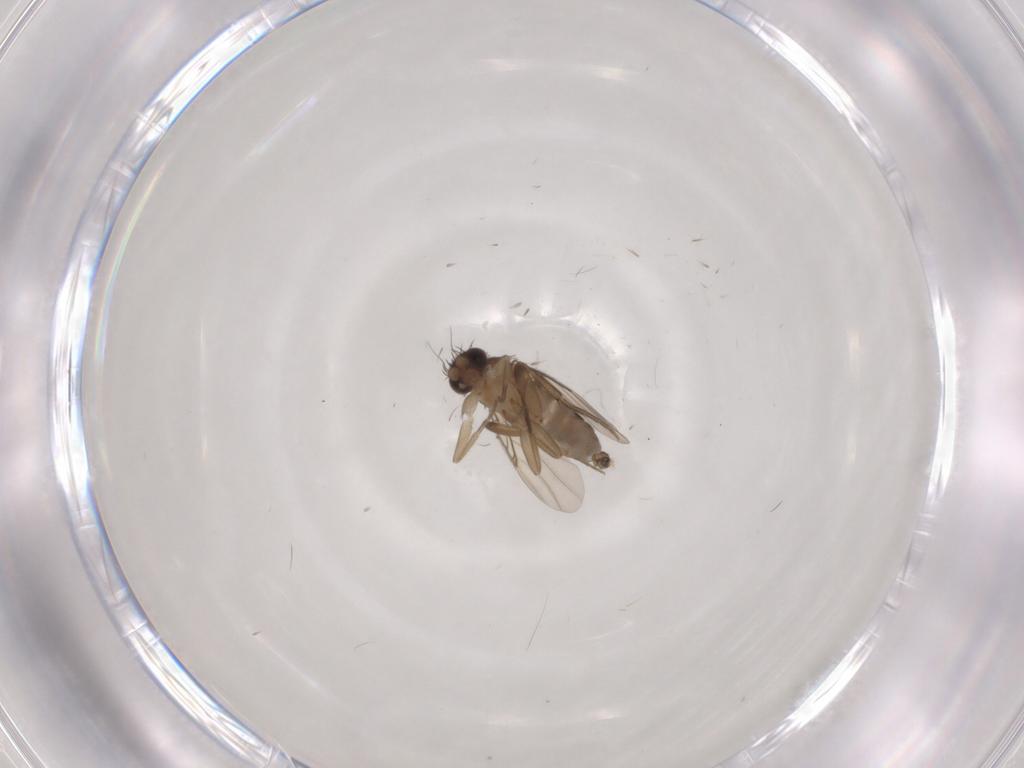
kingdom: Animalia
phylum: Arthropoda
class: Insecta
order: Diptera
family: Phoridae
